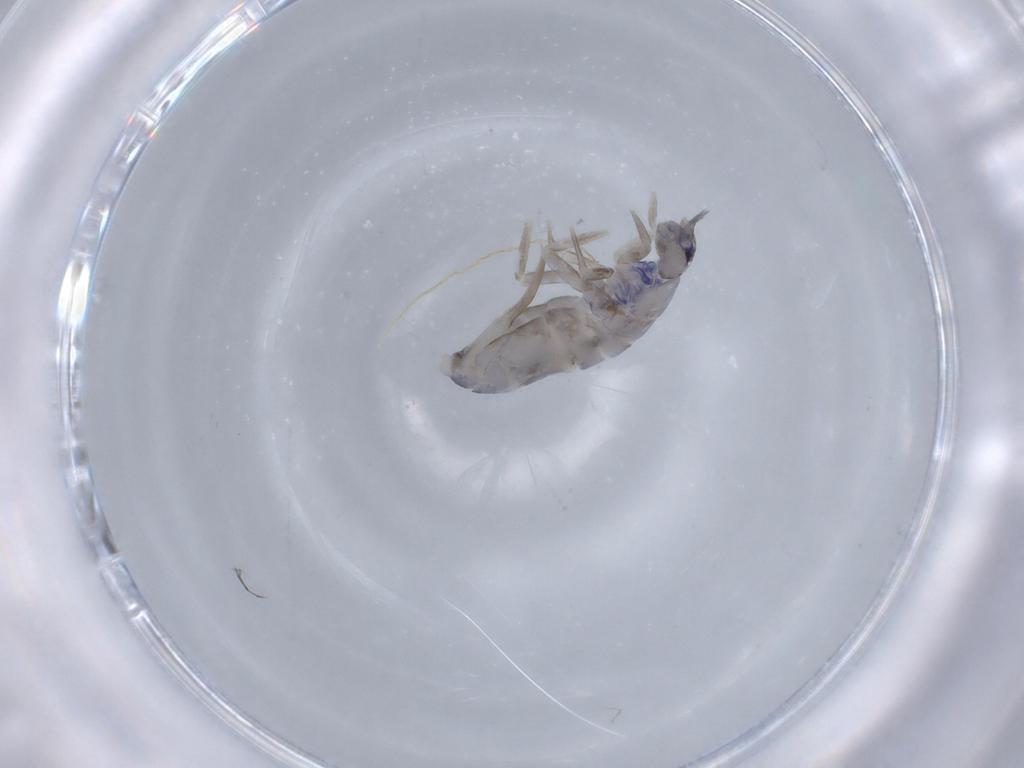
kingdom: Animalia
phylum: Arthropoda
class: Collembola
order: Entomobryomorpha
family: Tomoceridae
